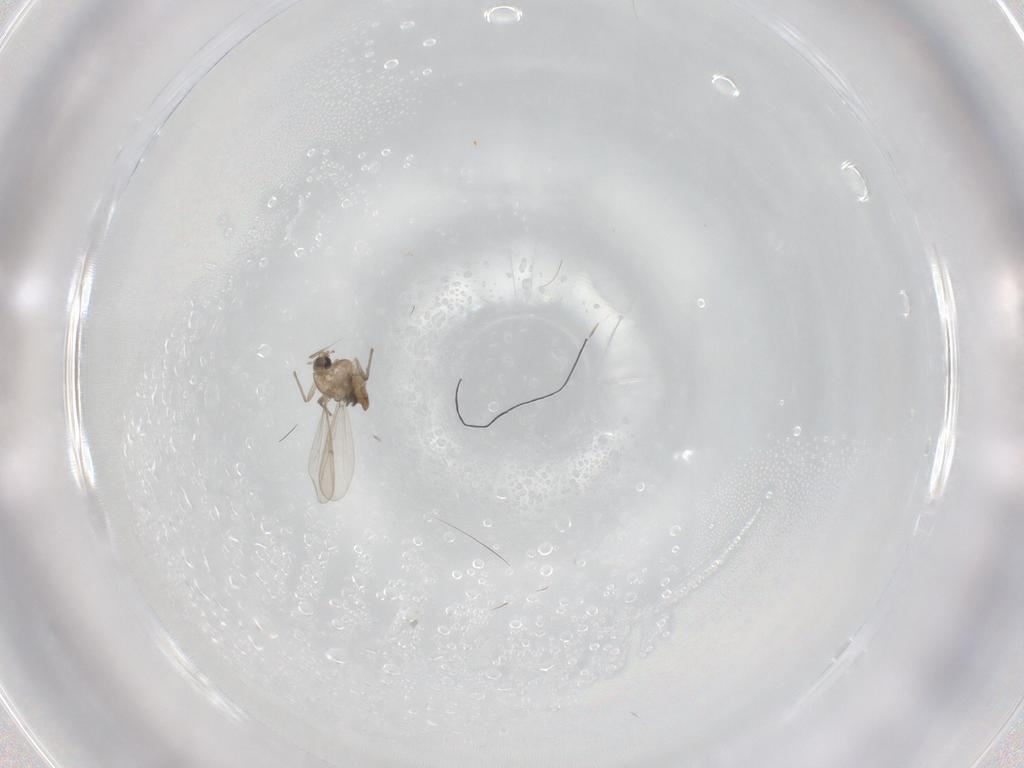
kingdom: Animalia
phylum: Arthropoda
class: Insecta
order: Diptera
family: Chironomidae
